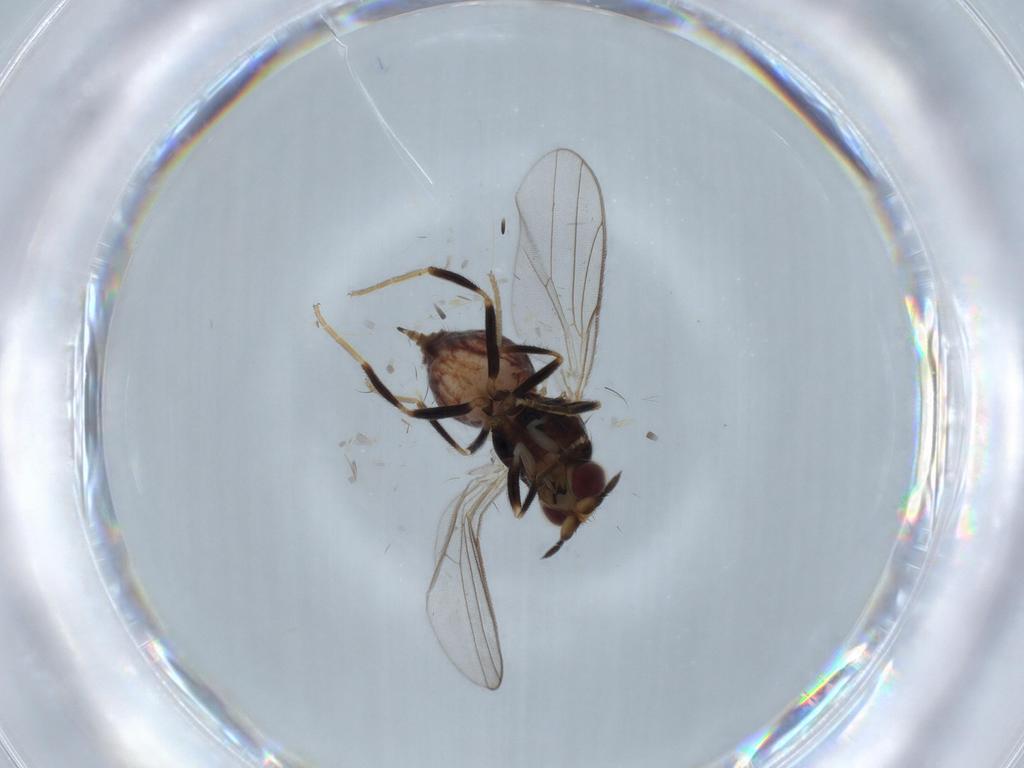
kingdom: Animalia
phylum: Arthropoda
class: Insecta
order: Diptera
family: Chloropidae
